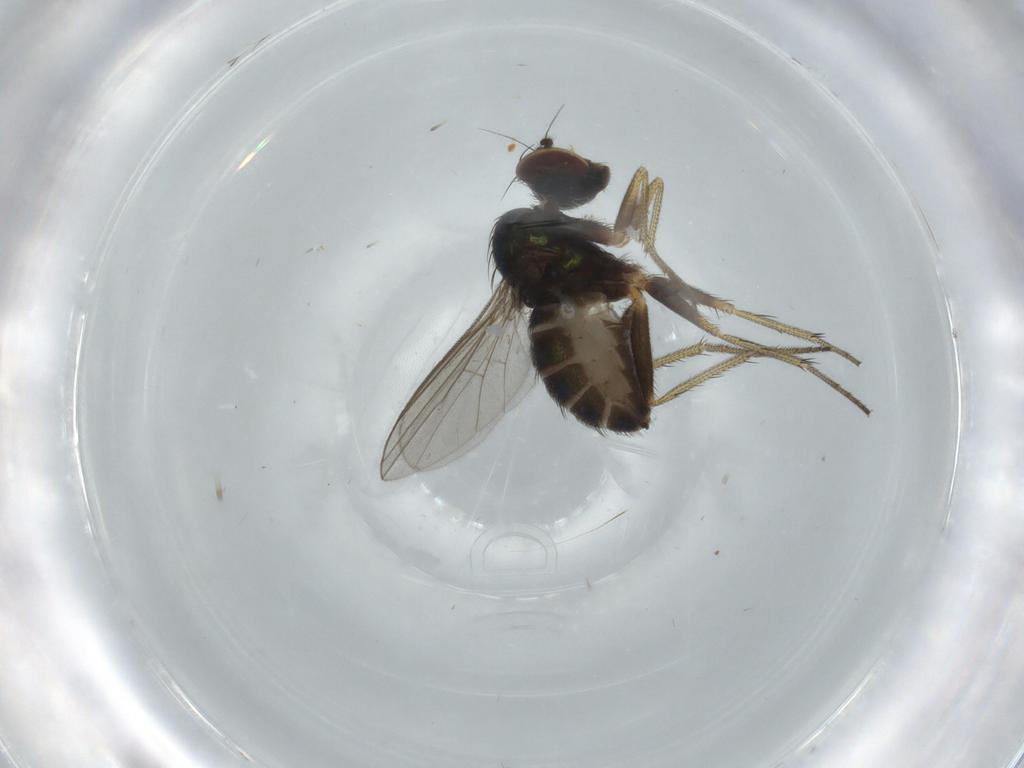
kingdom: Animalia
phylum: Arthropoda
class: Insecta
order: Diptera
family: Dolichopodidae
